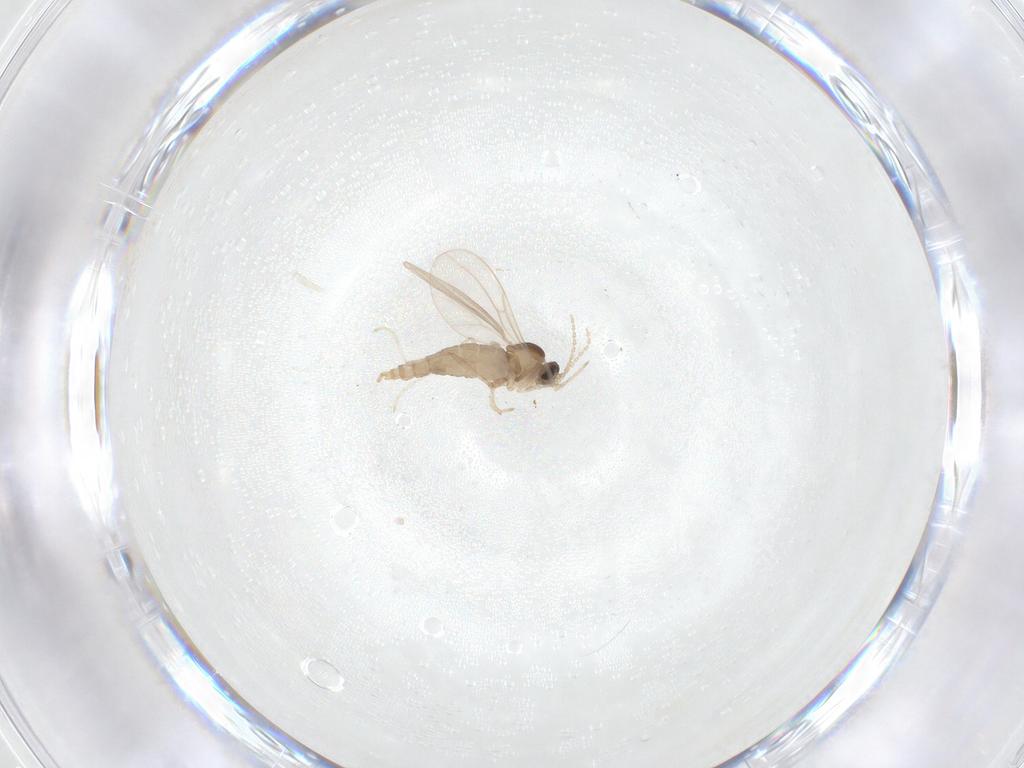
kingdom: Animalia
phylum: Arthropoda
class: Insecta
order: Diptera
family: Cecidomyiidae
